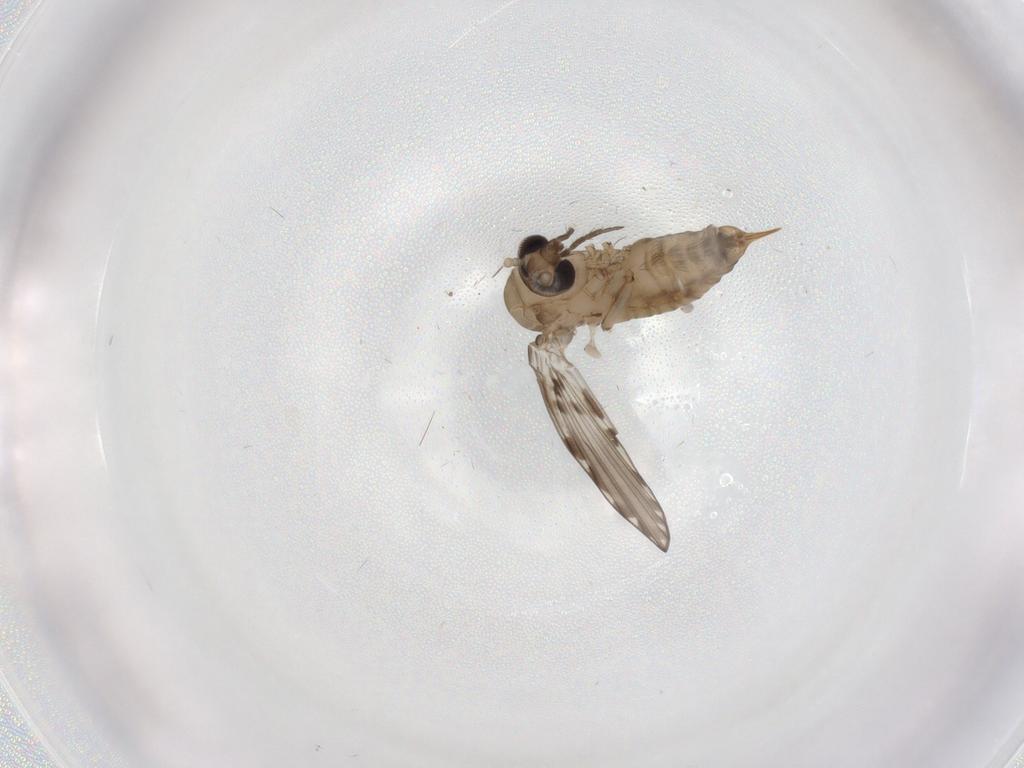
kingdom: Animalia
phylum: Arthropoda
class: Insecta
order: Diptera
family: Psychodidae
